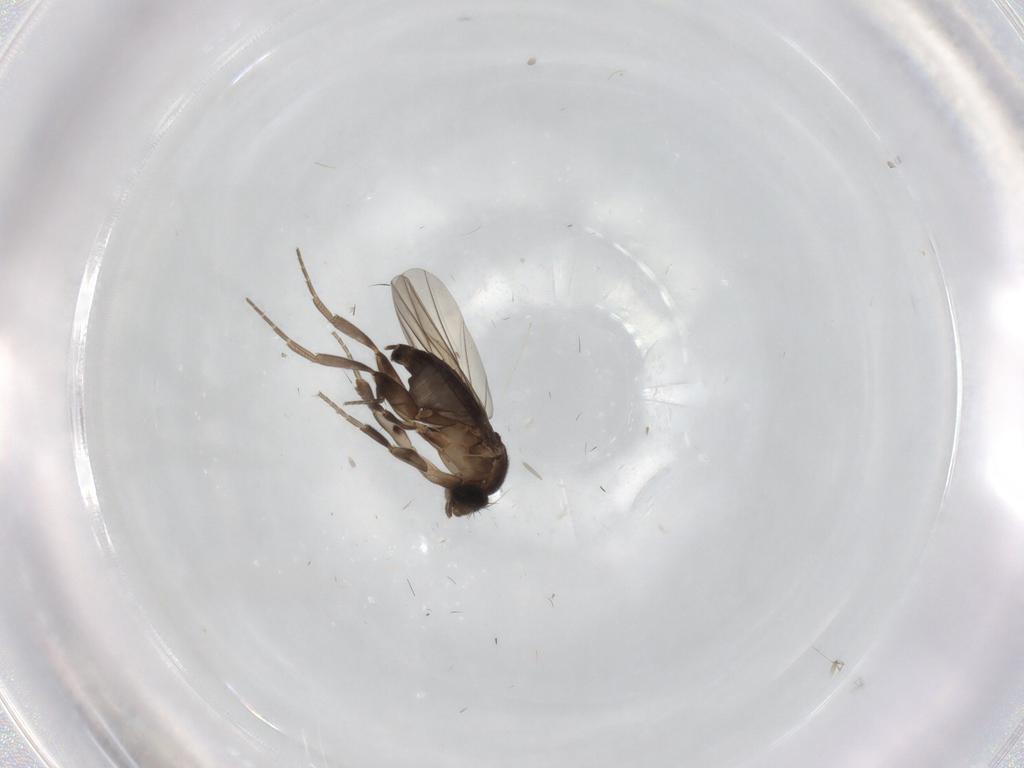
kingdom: Animalia
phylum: Arthropoda
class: Insecta
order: Diptera
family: Phoridae
